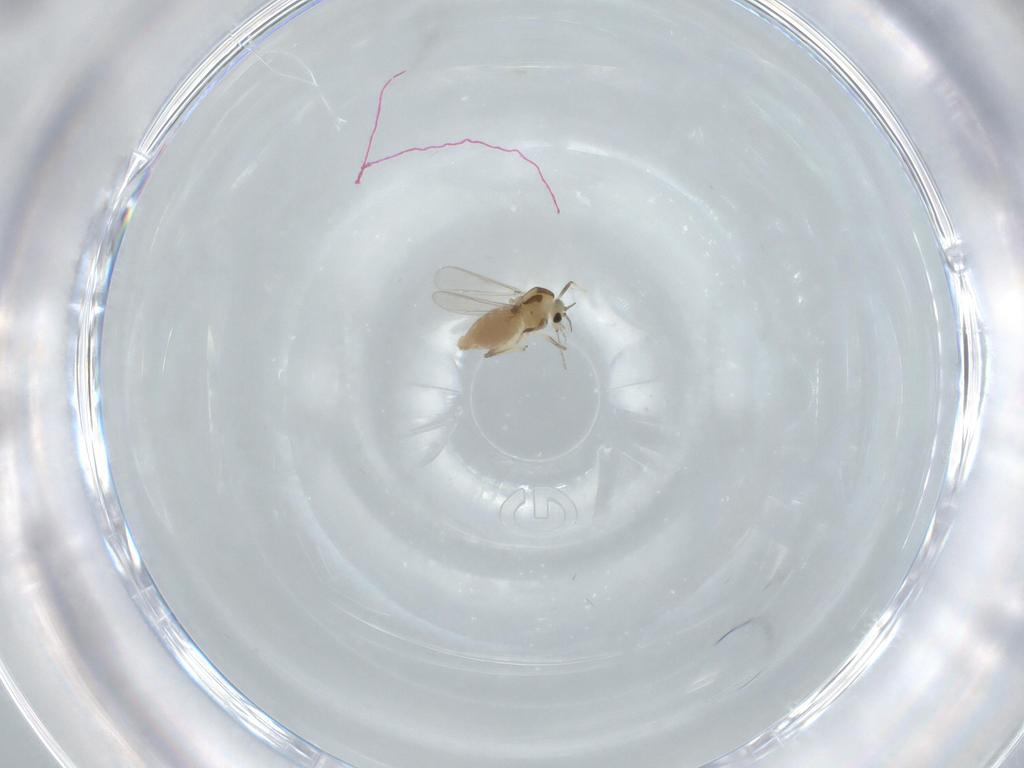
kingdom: Animalia
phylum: Arthropoda
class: Insecta
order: Diptera
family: Chironomidae
